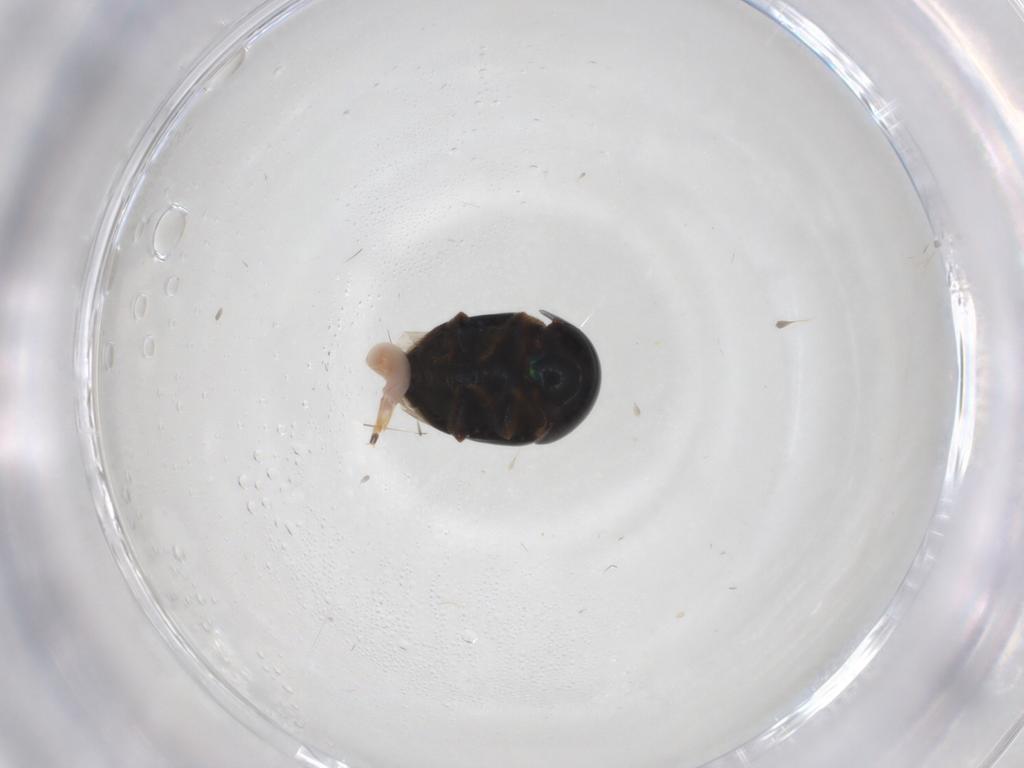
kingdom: Animalia
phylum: Arthropoda
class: Insecta
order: Coleoptera
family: Cybocephalidae
